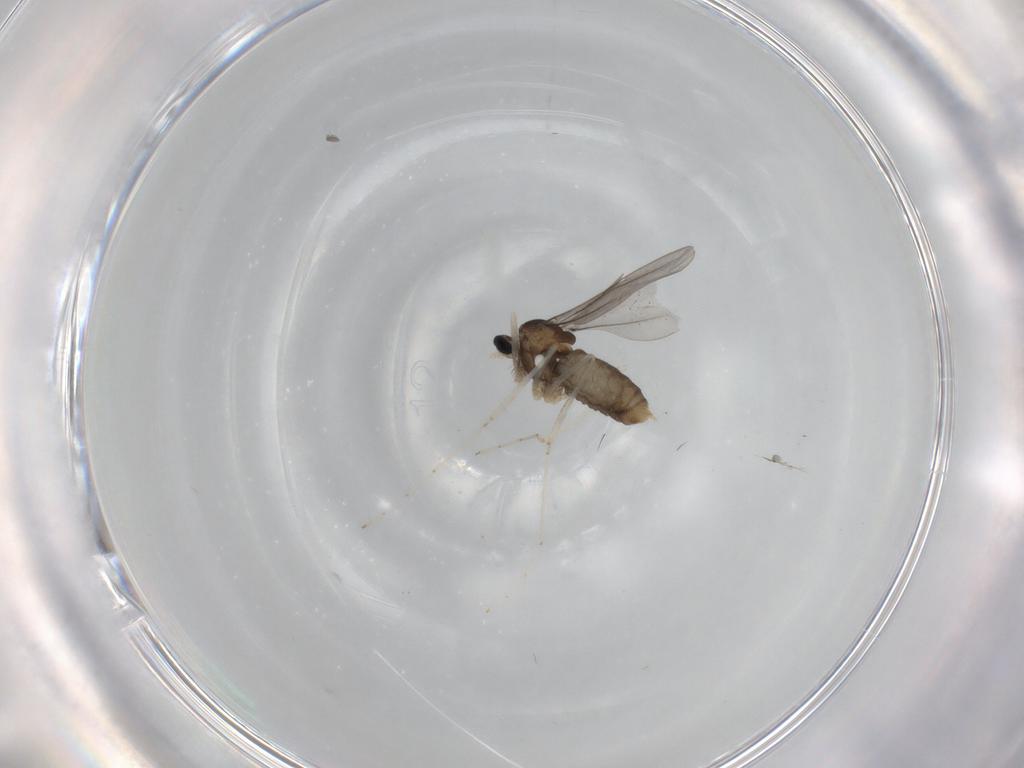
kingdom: Animalia
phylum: Arthropoda
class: Insecta
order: Diptera
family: Cecidomyiidae
